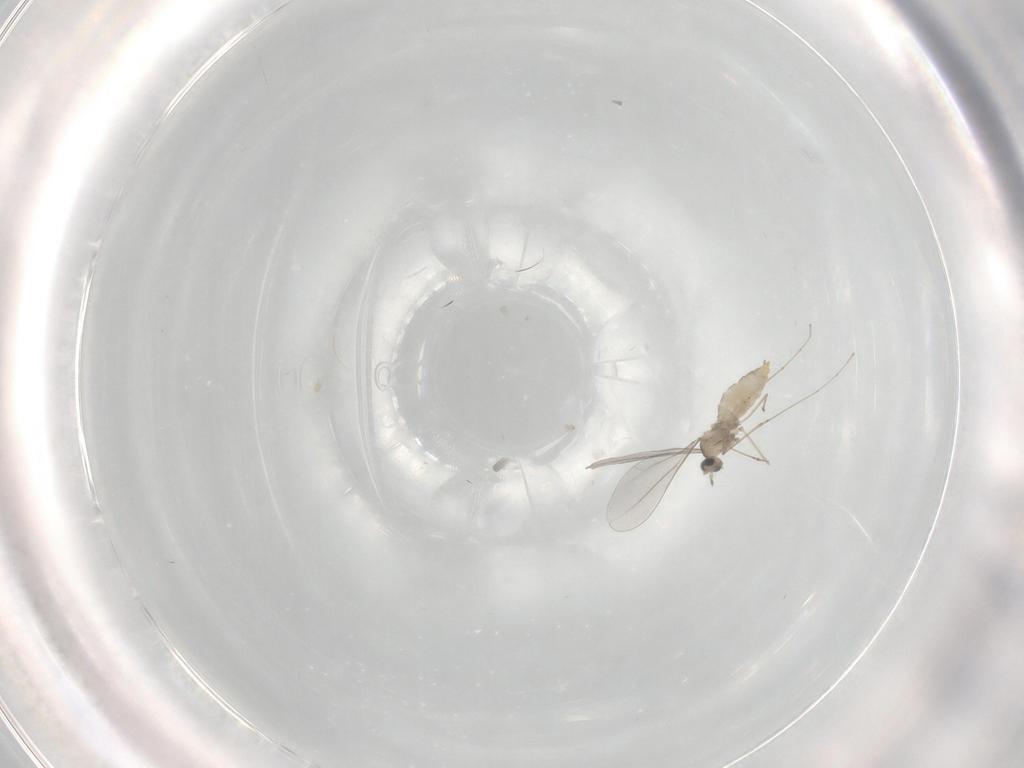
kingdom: Animalia
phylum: Arthropoda
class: Insecta
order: Diptera
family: Cecidomyiidae
